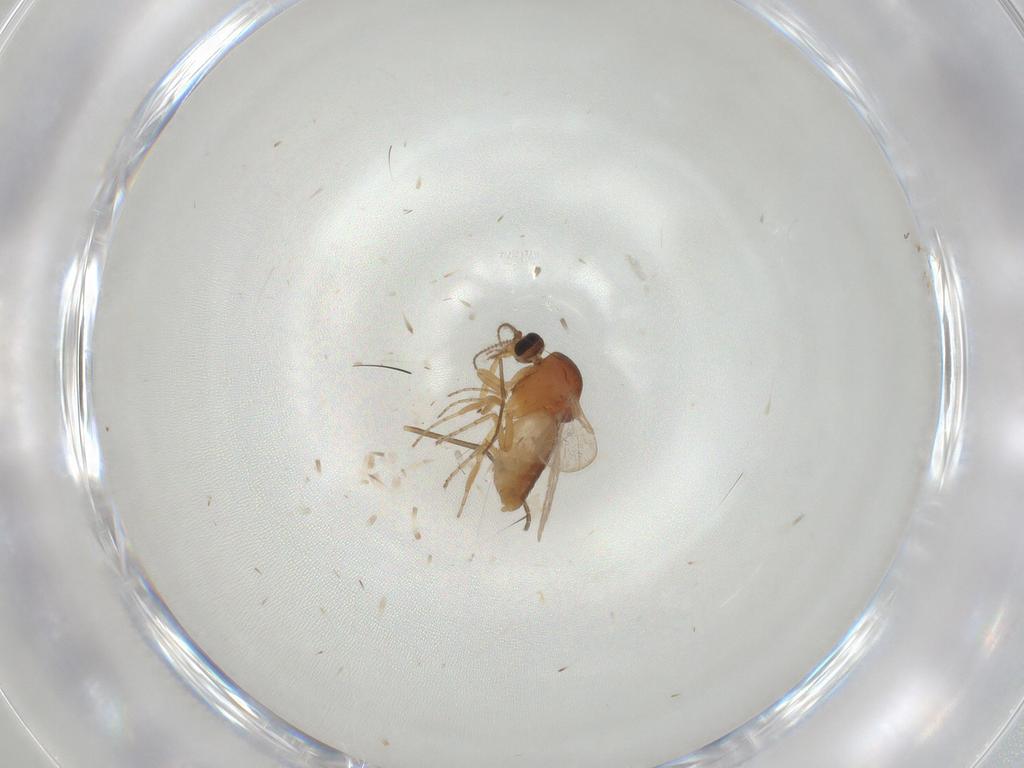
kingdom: Animalia
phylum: Arthropoda
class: Insecta
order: Diptera
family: Ceratopogonidae
